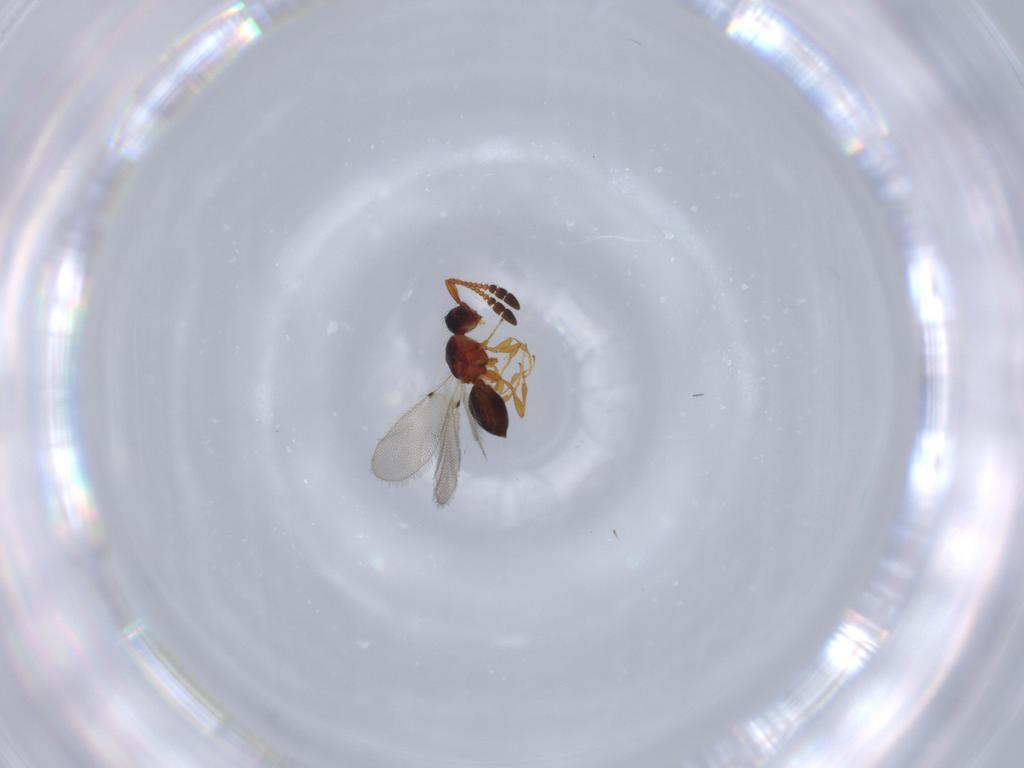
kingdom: Animalia
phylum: Arthropoda
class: Insecta
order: Hymenoptera
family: Diapriidae
